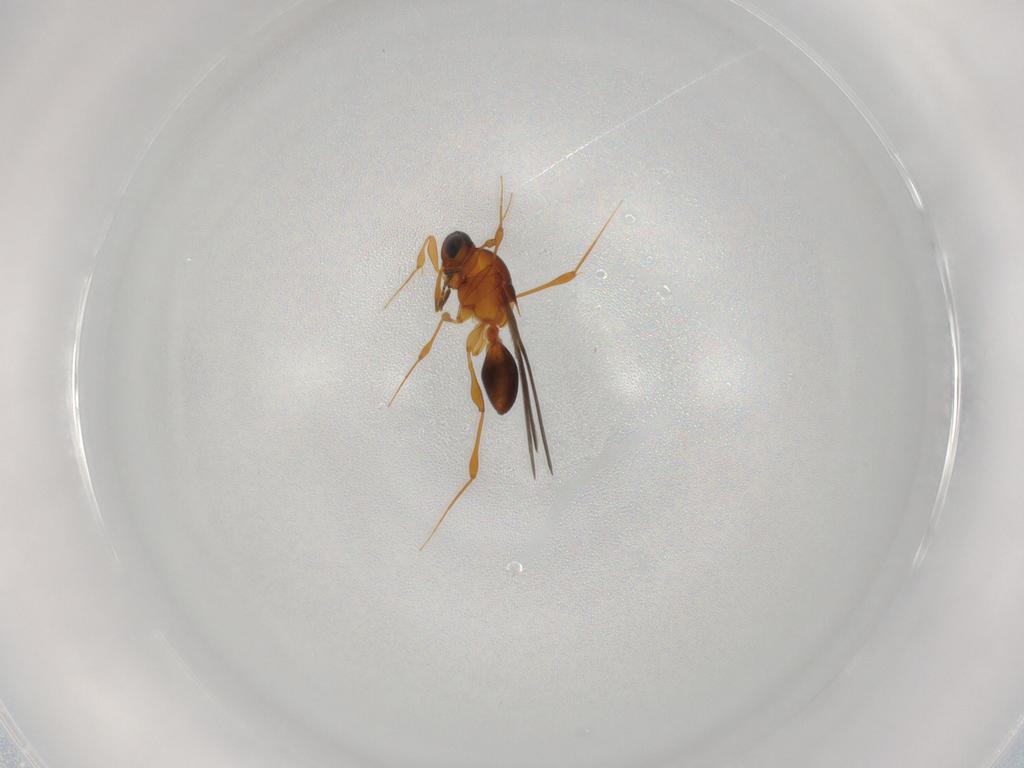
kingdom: Animalia
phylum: Arthropoda
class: Insecta
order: Hymenoptera
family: Platygastridae
